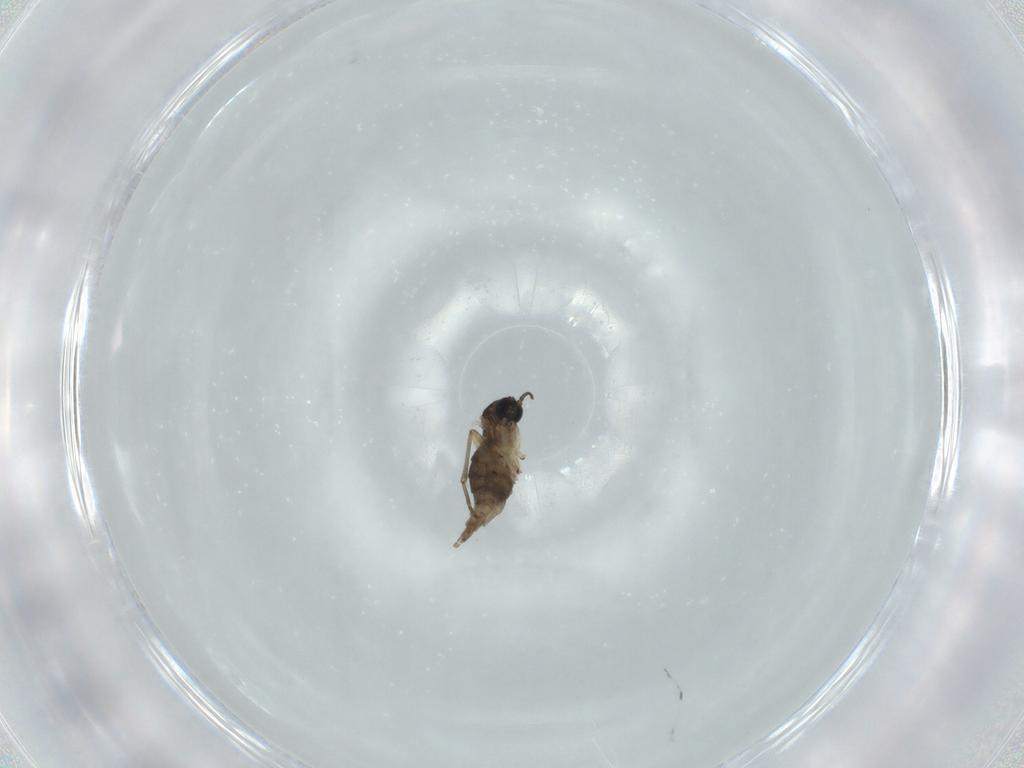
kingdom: Animalia
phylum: Arthropoda
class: Insecta
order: Diptera
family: Sciaridae
